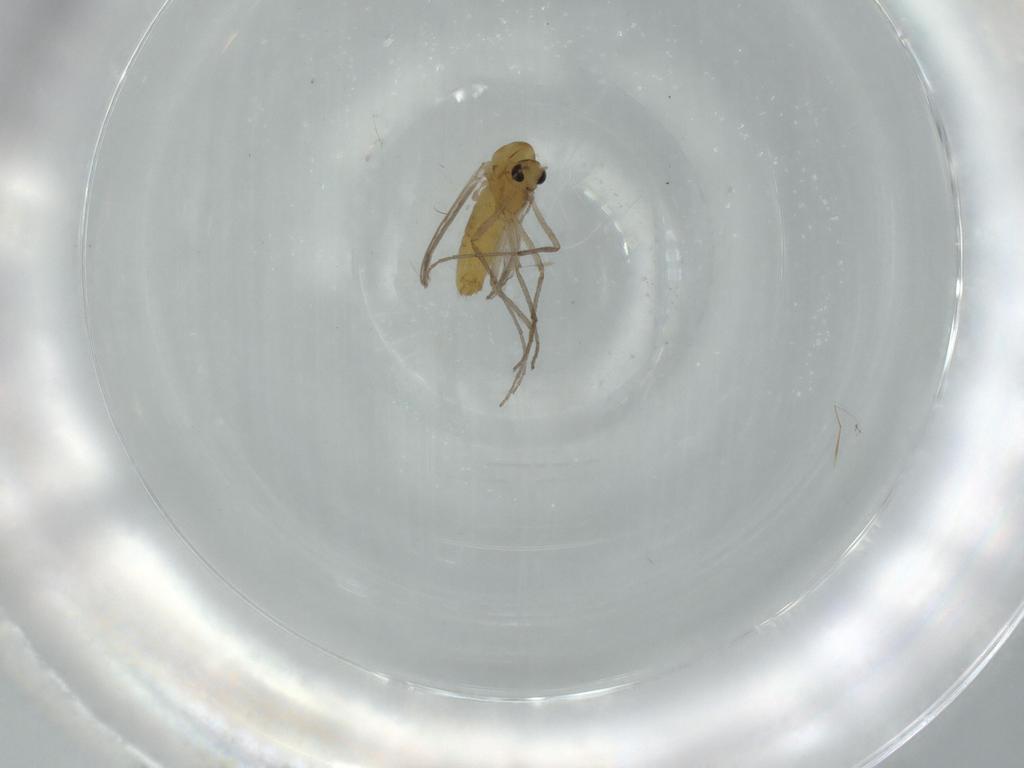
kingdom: Animalia
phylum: Arthropoda
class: Insecta
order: Diptera
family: Chironomidae
